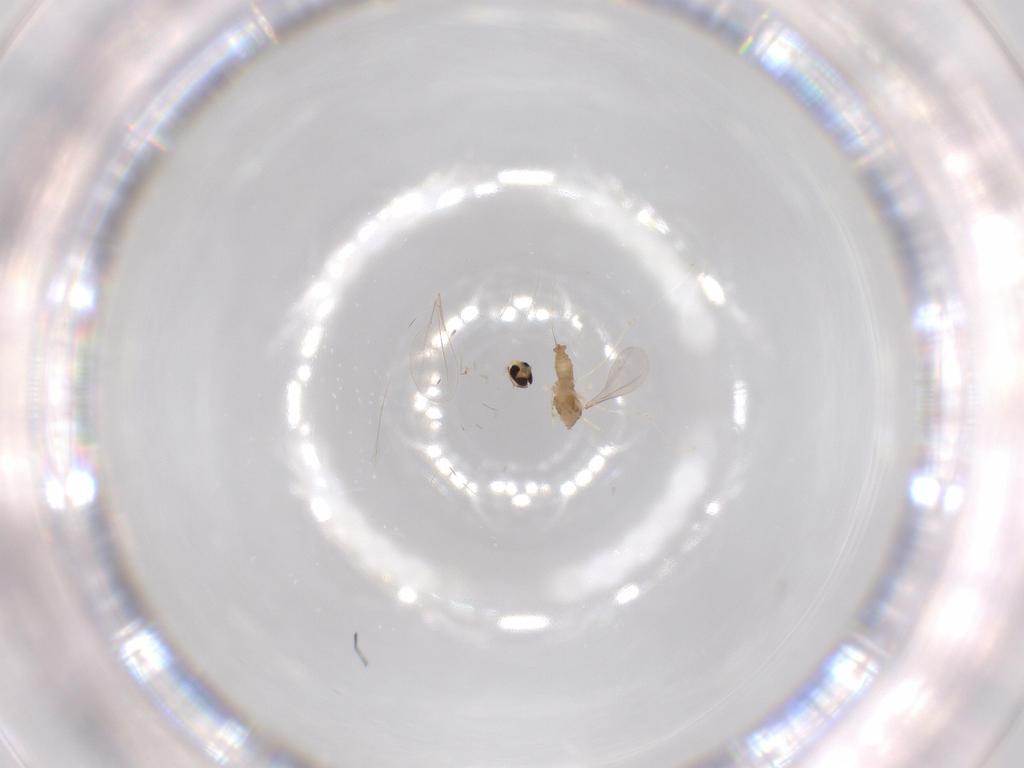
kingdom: Animalia
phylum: Arthropoda
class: Insecta
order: Diptera
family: Cecidomyiidae
